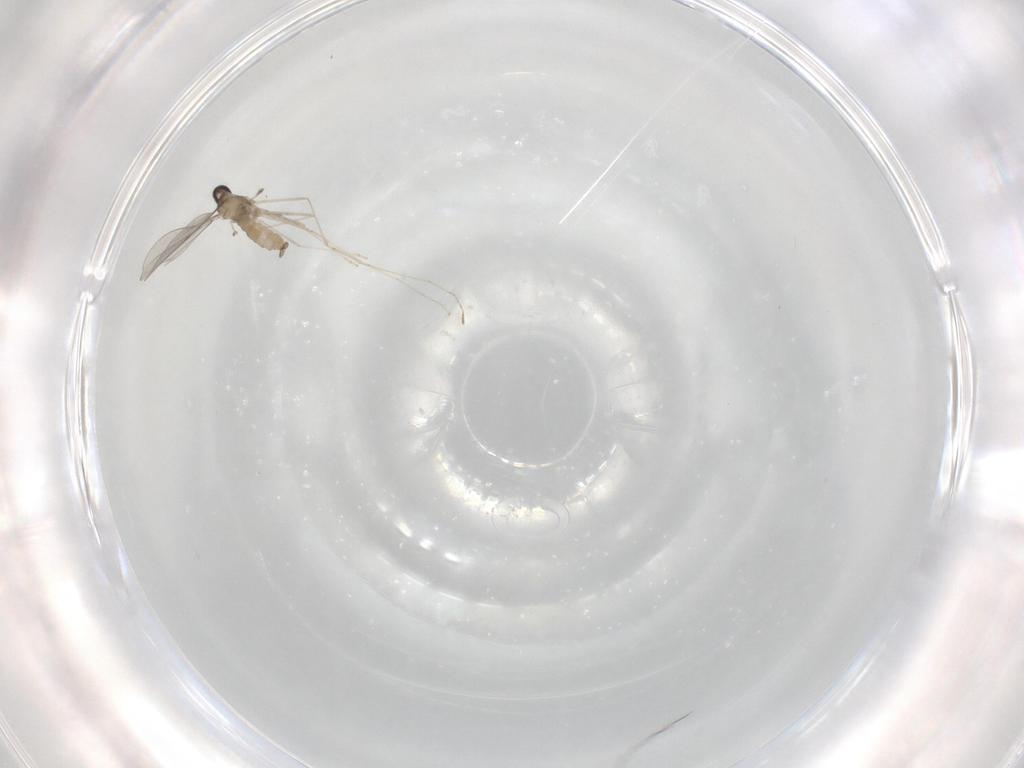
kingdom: Animalia
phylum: Arthropoda
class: Insecta
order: Diptera
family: Cecidomyiidae
